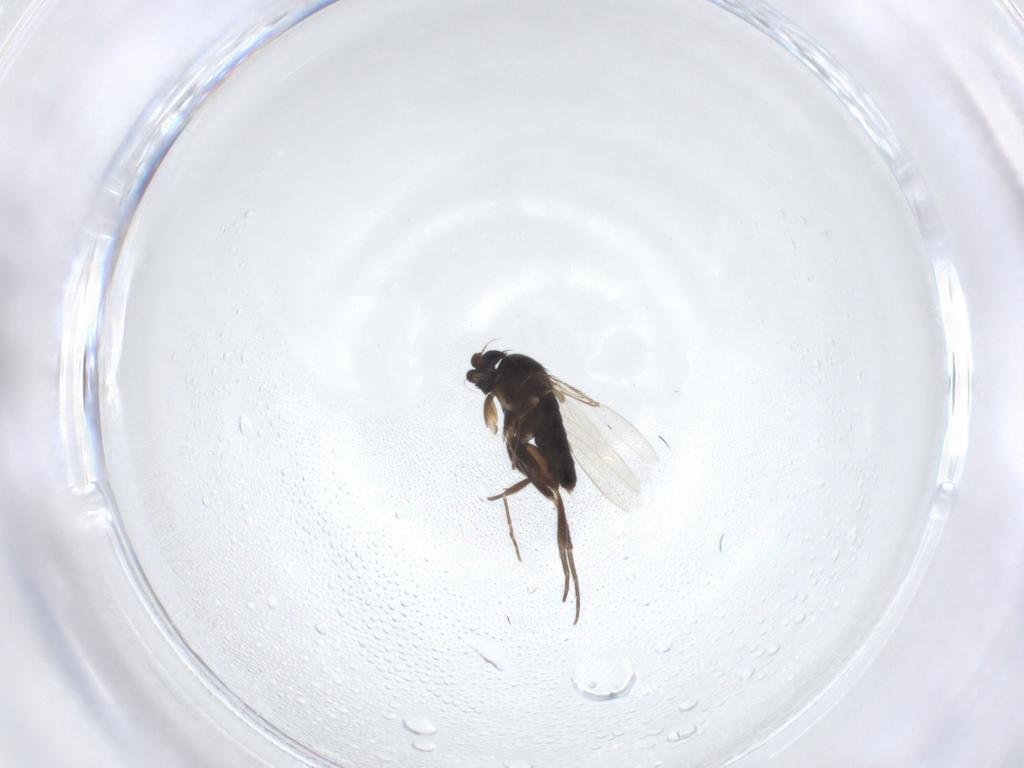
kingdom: Animalia
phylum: Arthropoda
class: Insecta
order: Diptera
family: Phoridae
